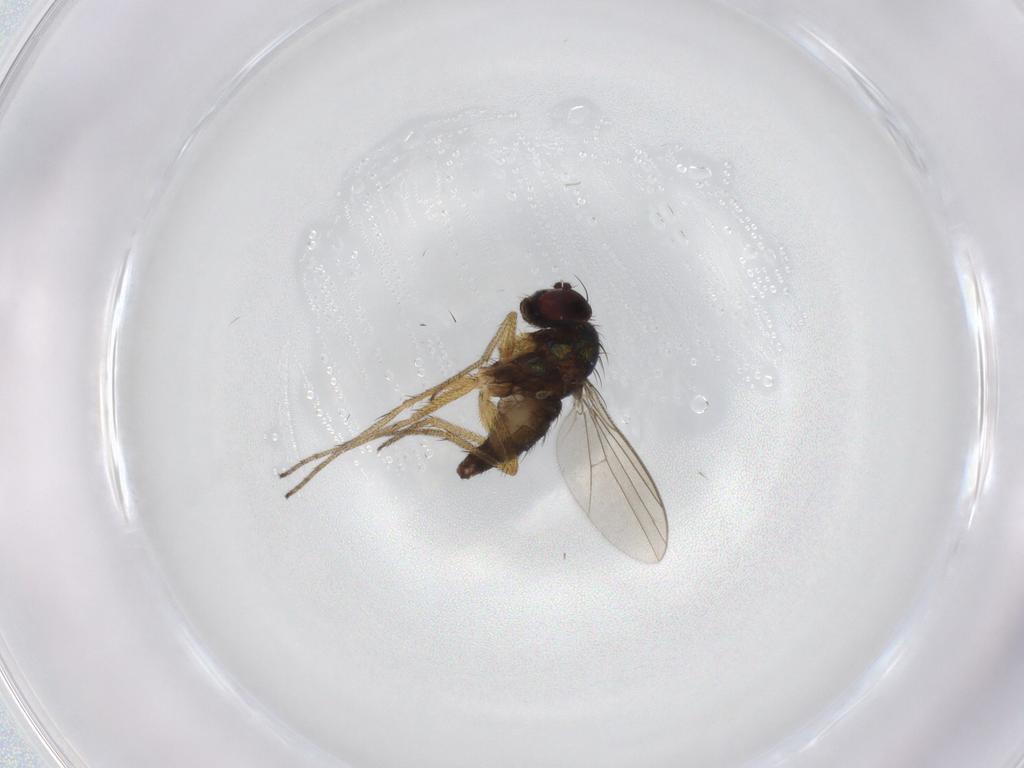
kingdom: Animalia
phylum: Arthropoda
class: Insecta
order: Diptera
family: Dolichopodidae
